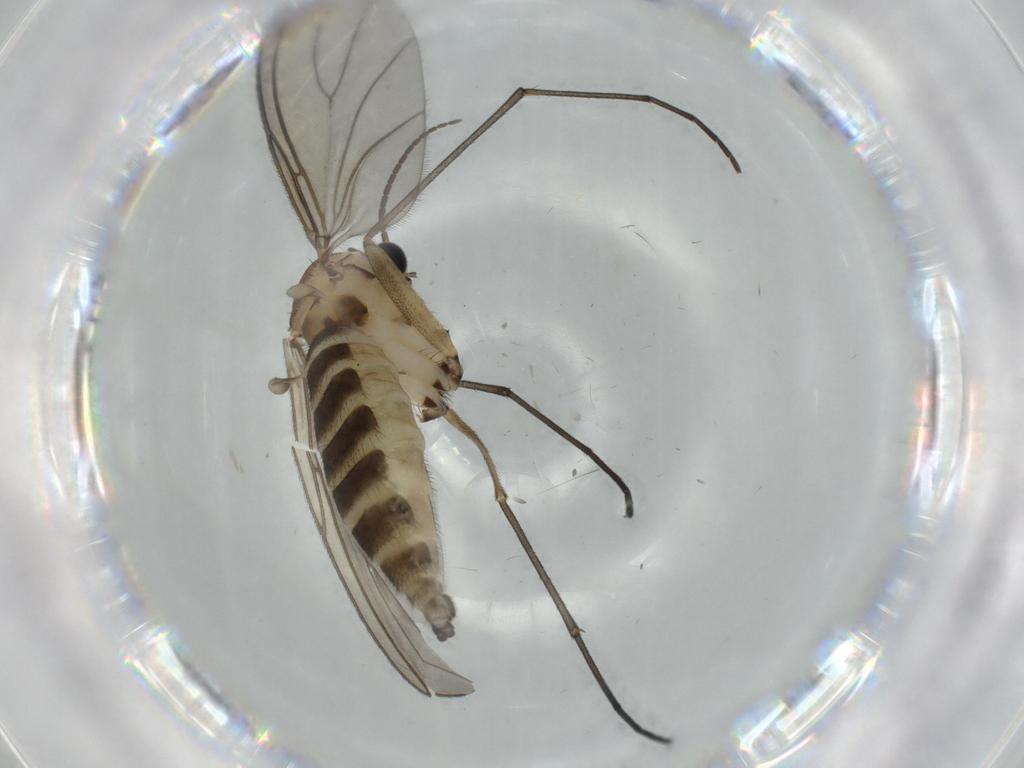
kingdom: Animalia
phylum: Arthropoda
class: Insecta
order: Diptera
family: Sciaridae
